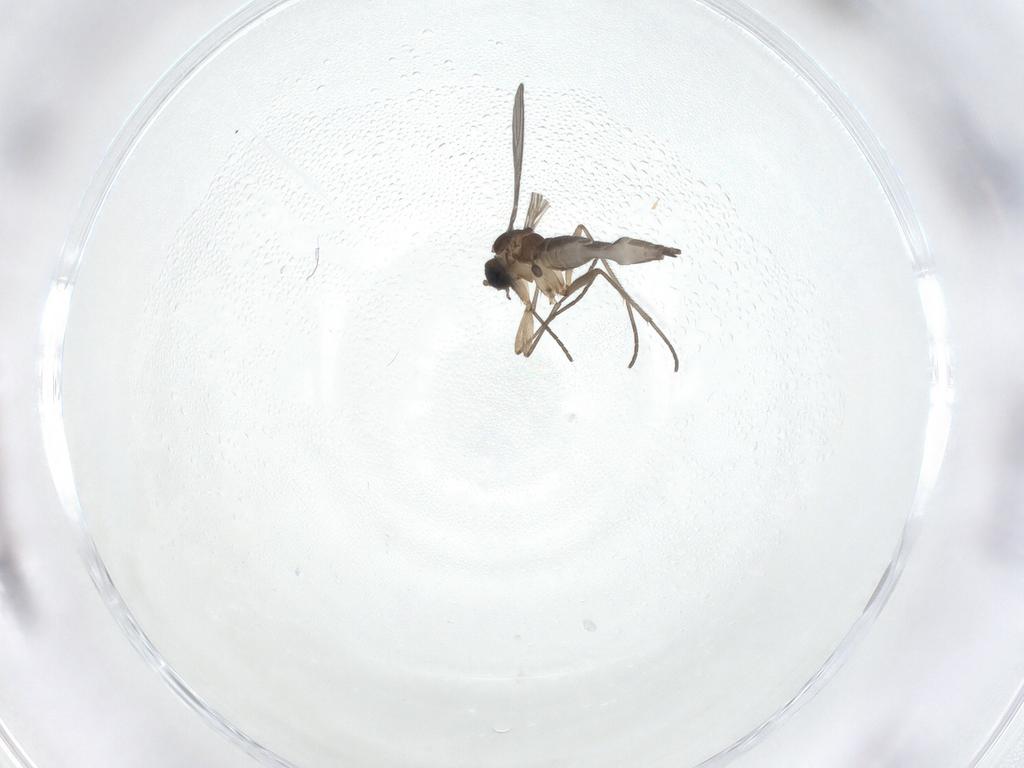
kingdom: Animalia
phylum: Arthropoda
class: Insecta
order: Diptera
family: Sciaridae
